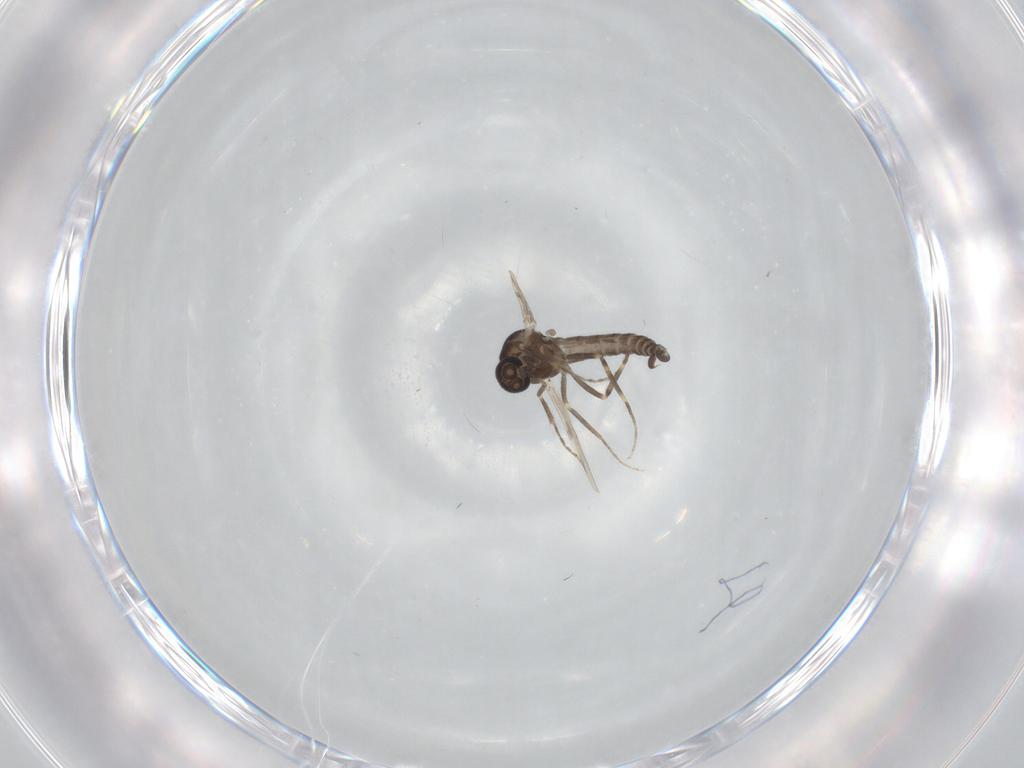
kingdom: Animalia
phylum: Arthropoda
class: Insecta
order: Diptera
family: Ceratopogonidae
